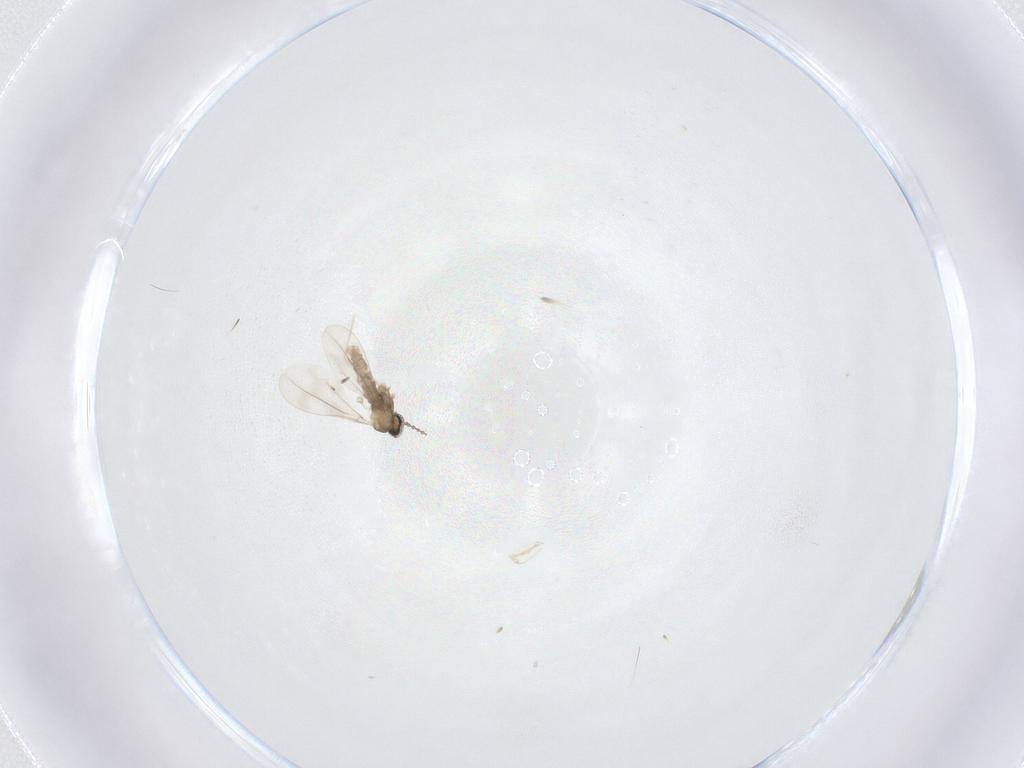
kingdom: Animalia
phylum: Arthropoda
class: Insecta
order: Diptera
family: Cecidomyiidae
